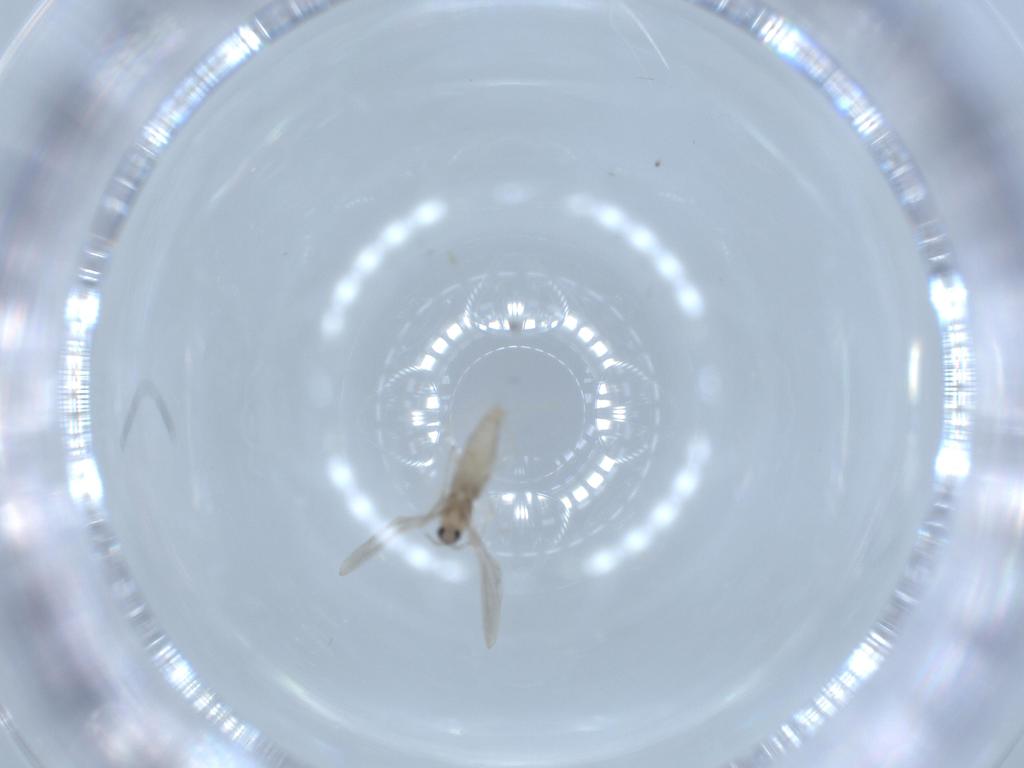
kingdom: Animalia
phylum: Arthropoda
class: Insecta
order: Diptera
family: Cecidomyiidae
